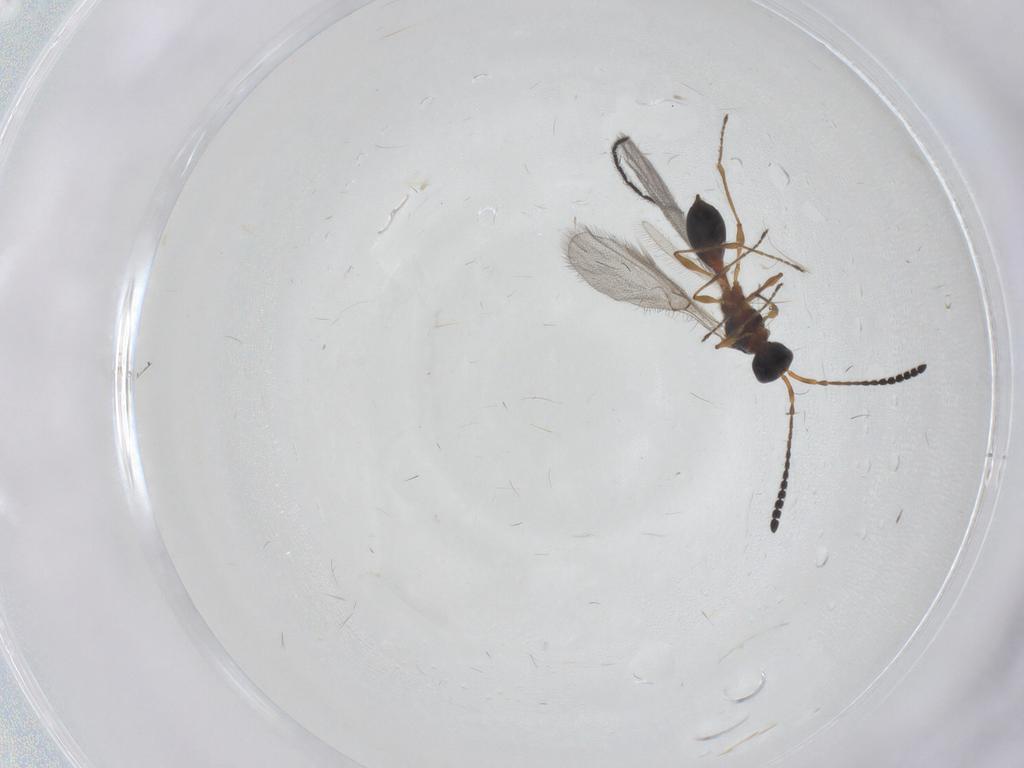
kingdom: Animalia
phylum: Arthropoda
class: Insecta
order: Hymenoptera
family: Diapriidae
